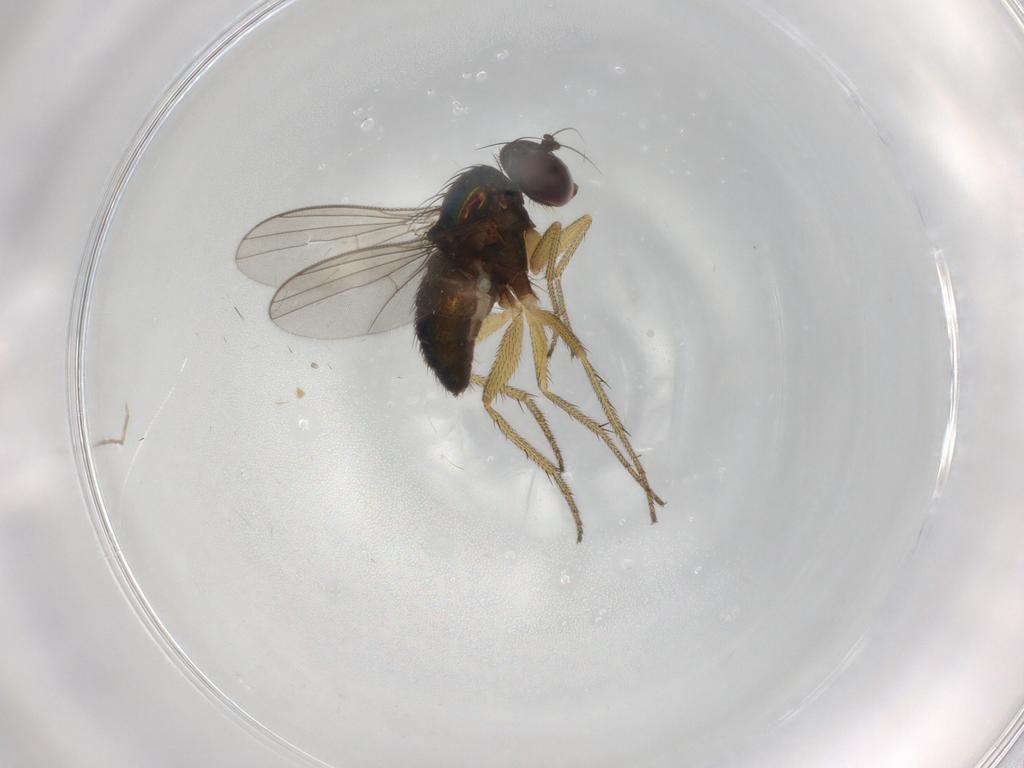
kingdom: Animalia
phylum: Arthropoda
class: Insecta
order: Diptera
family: Dolichopodidae
